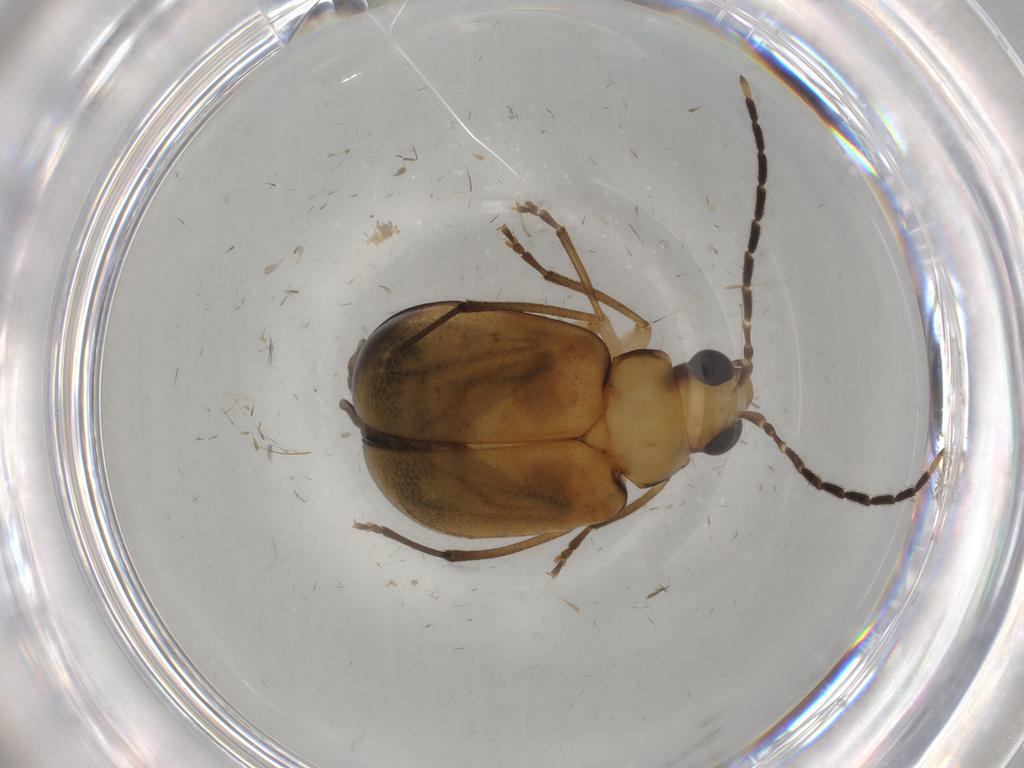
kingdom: Animalia
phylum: Arthropoda
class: Insecta
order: Coleoptera
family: Chrysomelidae
